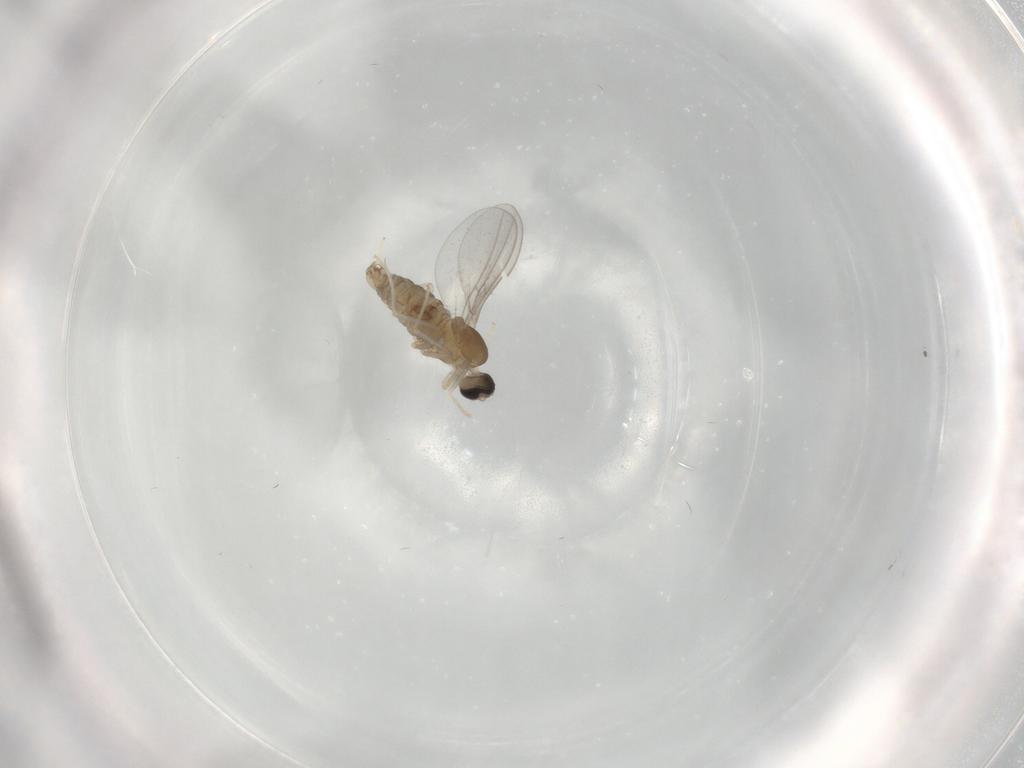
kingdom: Animalia
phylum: Arthropoda
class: Insecta
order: Diptera
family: Chironomidae
